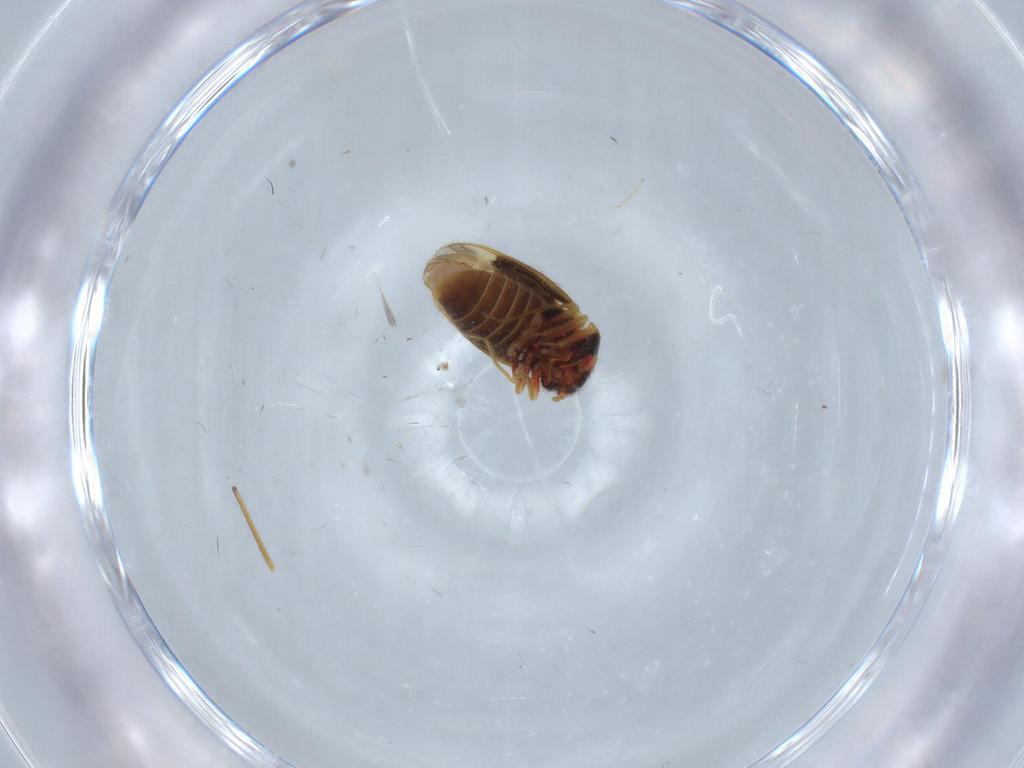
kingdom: Animalia
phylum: Arthropoda
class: Insecta
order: Hemiptera
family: Schizopteridae
